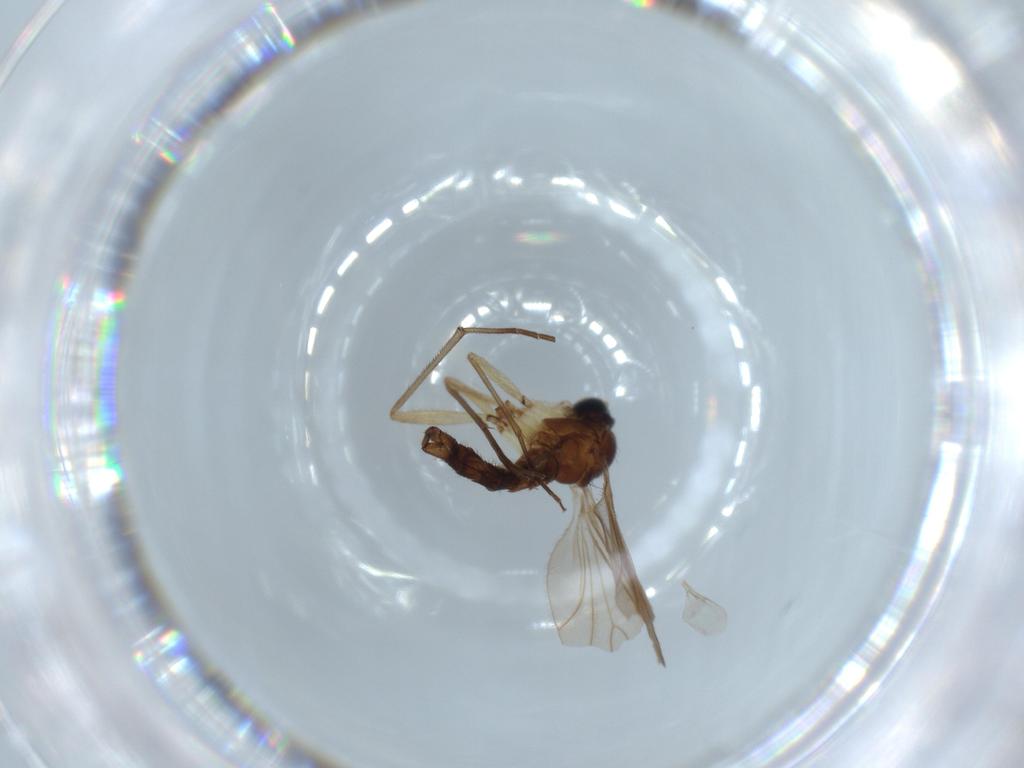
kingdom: Animalia
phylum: Arthropoda
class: Insecta
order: Diptera
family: Sciaridae
